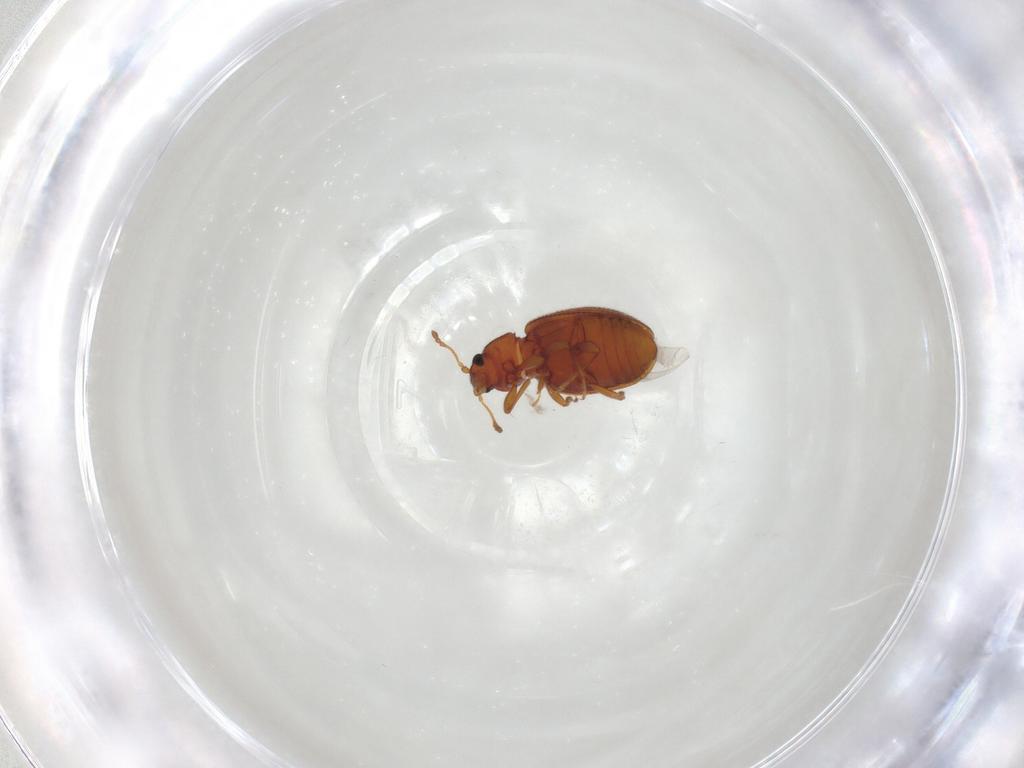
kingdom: Animalia
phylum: Arthropoda
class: Insecta
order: Coleoptera
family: Latridiidae
